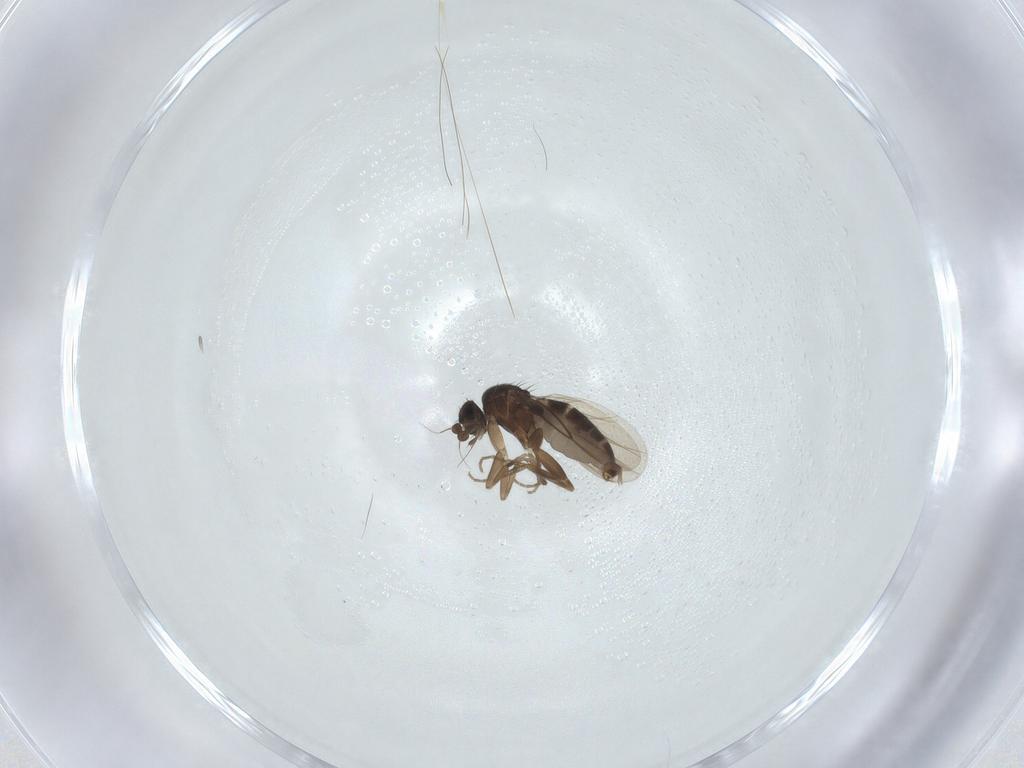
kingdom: Animalia
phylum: Arthropoda
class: Insecta
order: Diptera
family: Phoridae
